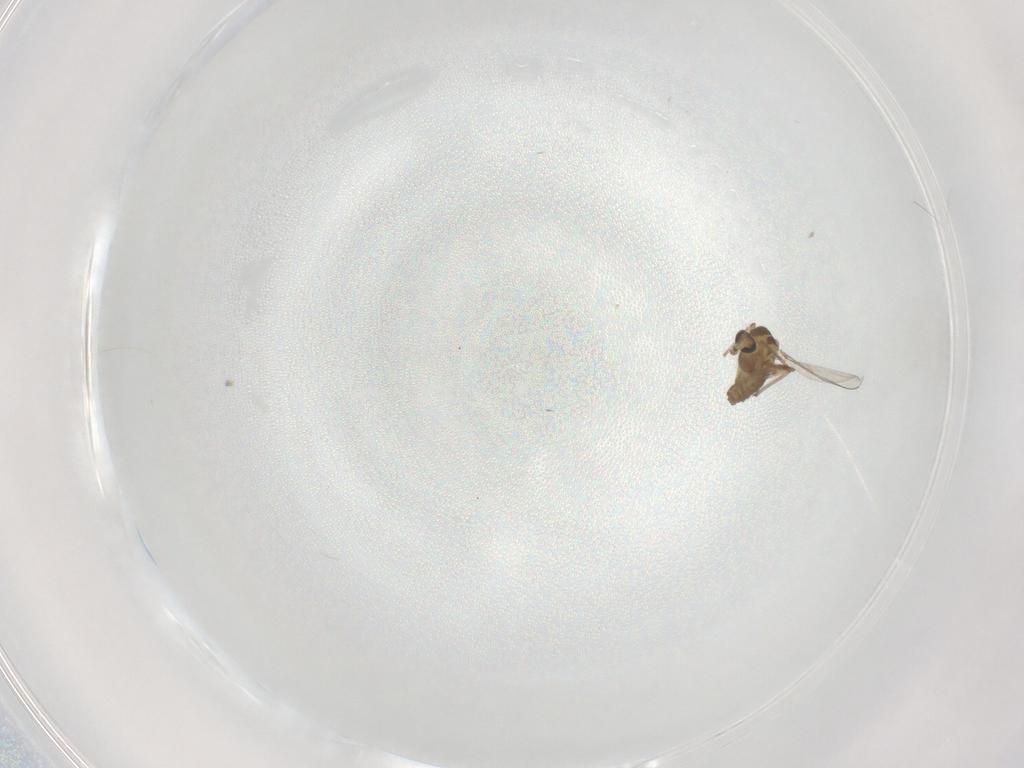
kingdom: Animalia
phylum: Arthropoda
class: Insecta
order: Diptera
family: Chironomidae
